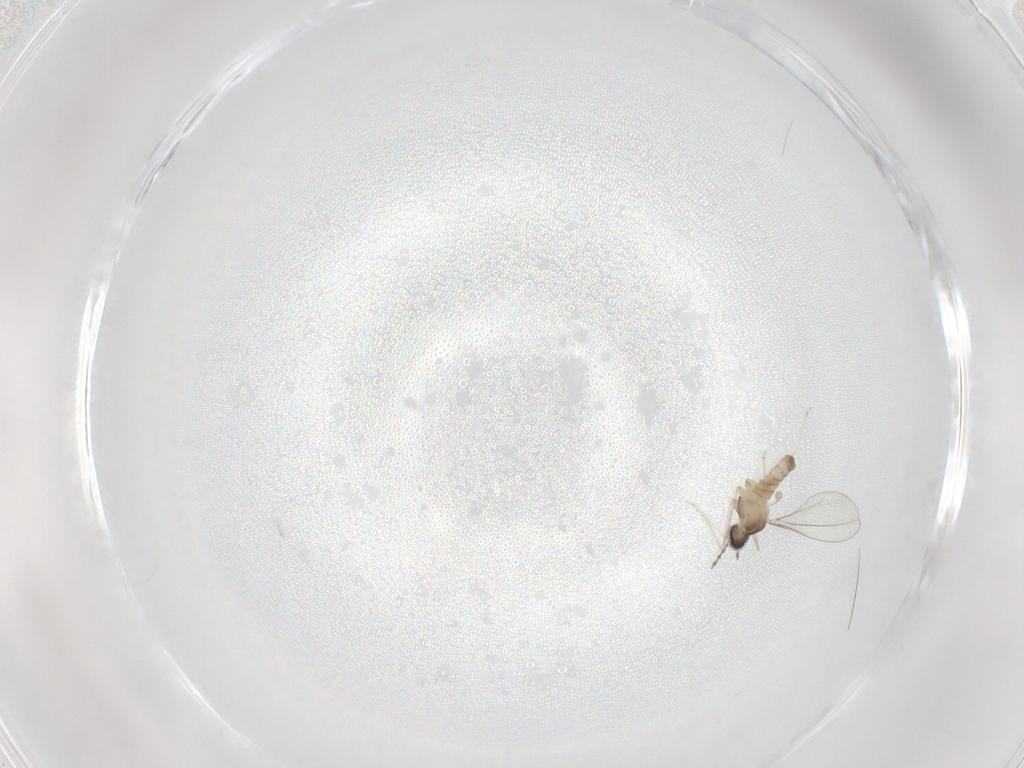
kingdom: Animalia
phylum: Arthropoda
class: Insecta
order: Diptera
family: Cecidomyiidae
